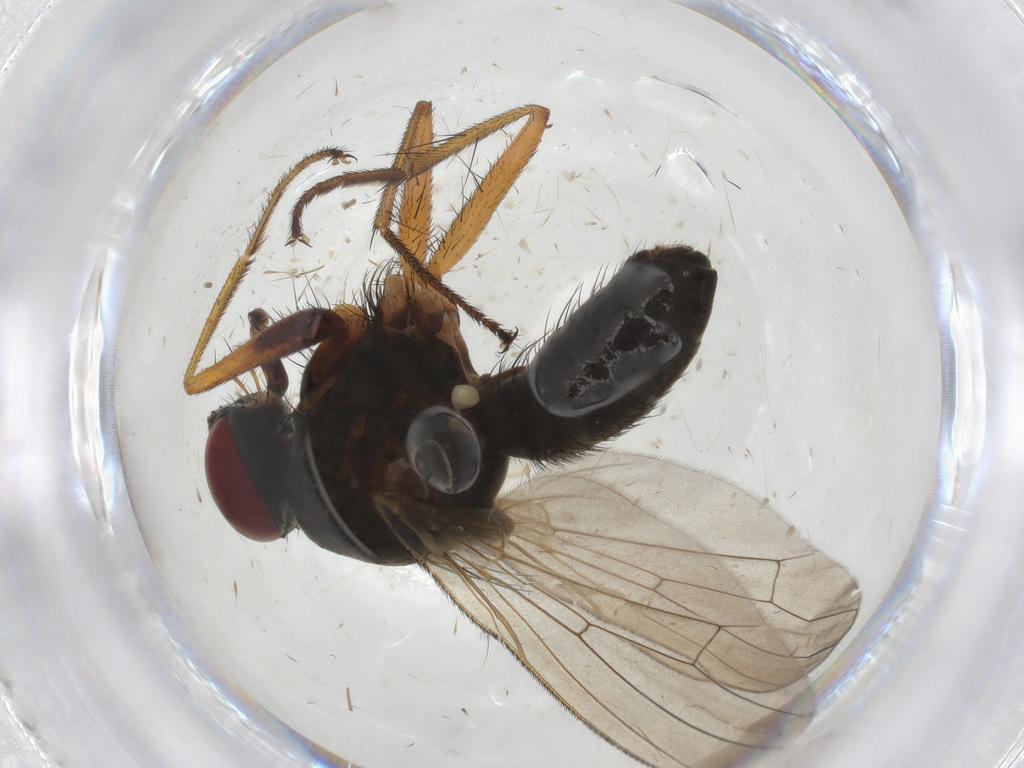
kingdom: Animalia
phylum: Arthropoda
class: Insecta
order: Diptera
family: Muscidae
